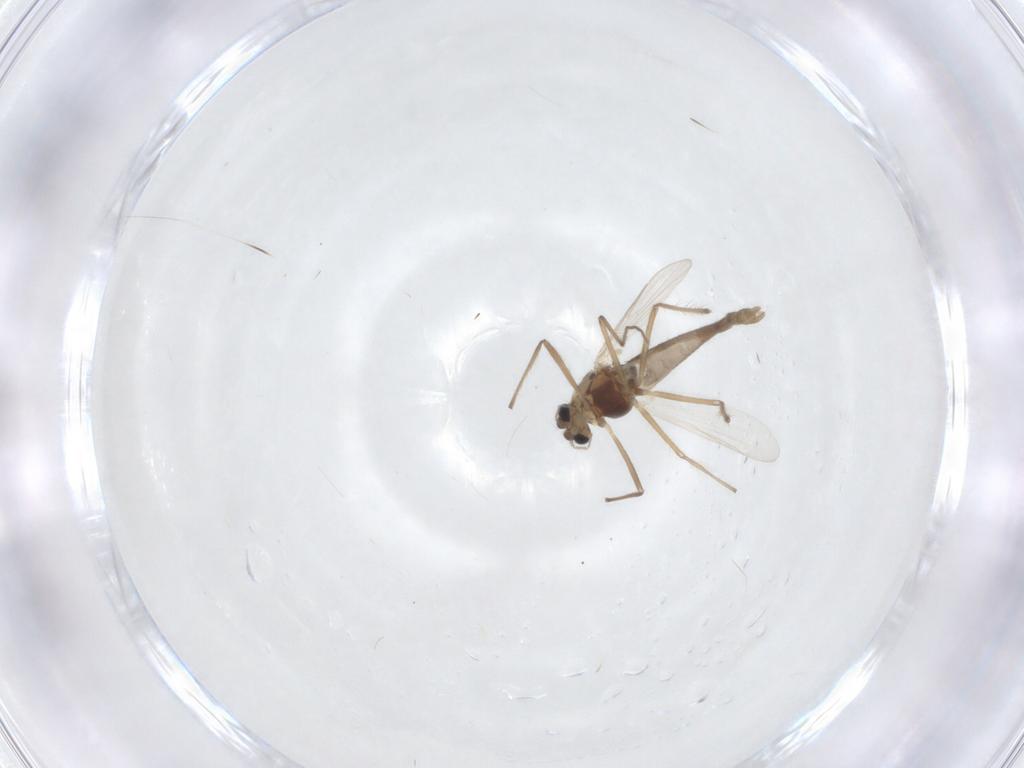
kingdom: Animalia
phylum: Arthropoda
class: Insecta
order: Diptera
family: Chironomidae
